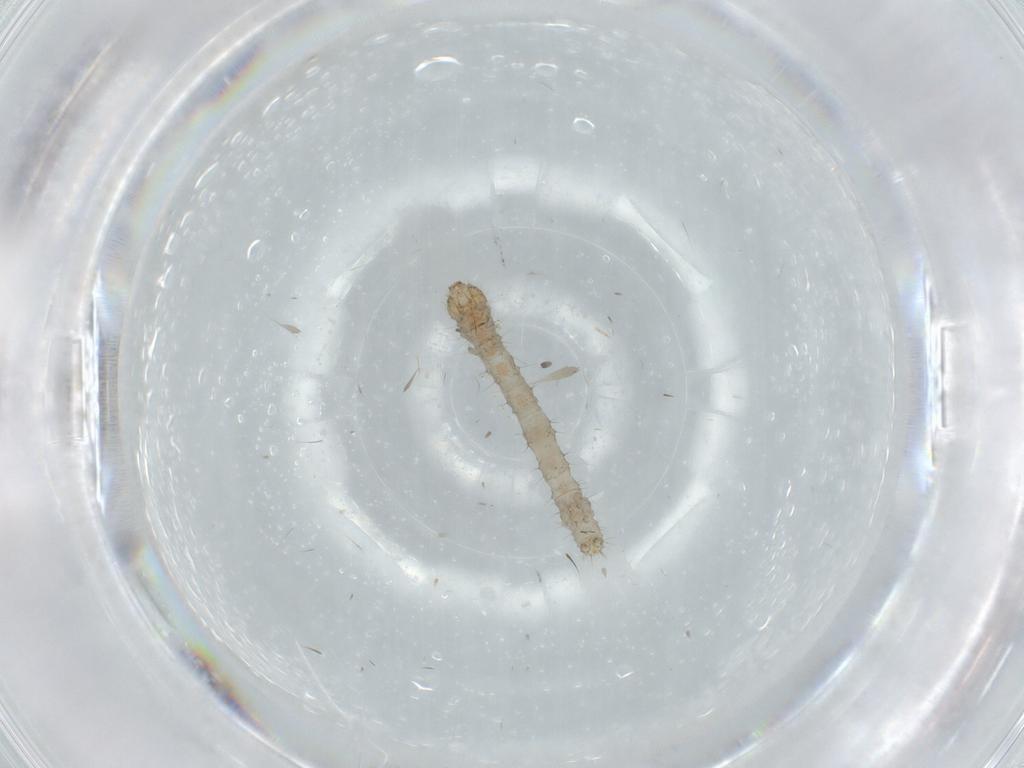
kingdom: Animalia
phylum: Arthropoda
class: Insecta
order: Lepidoptera
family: Erebidae
